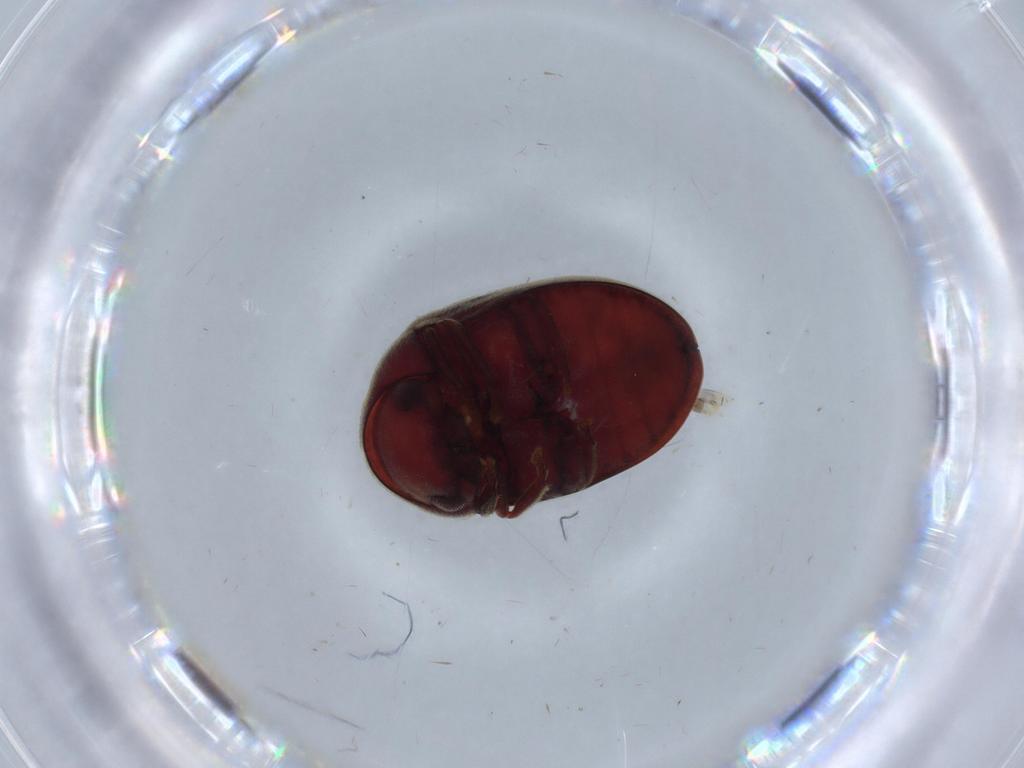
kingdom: Animalia
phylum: Arthropoda
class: Insecta
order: Coleoptera
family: Ptinidae
